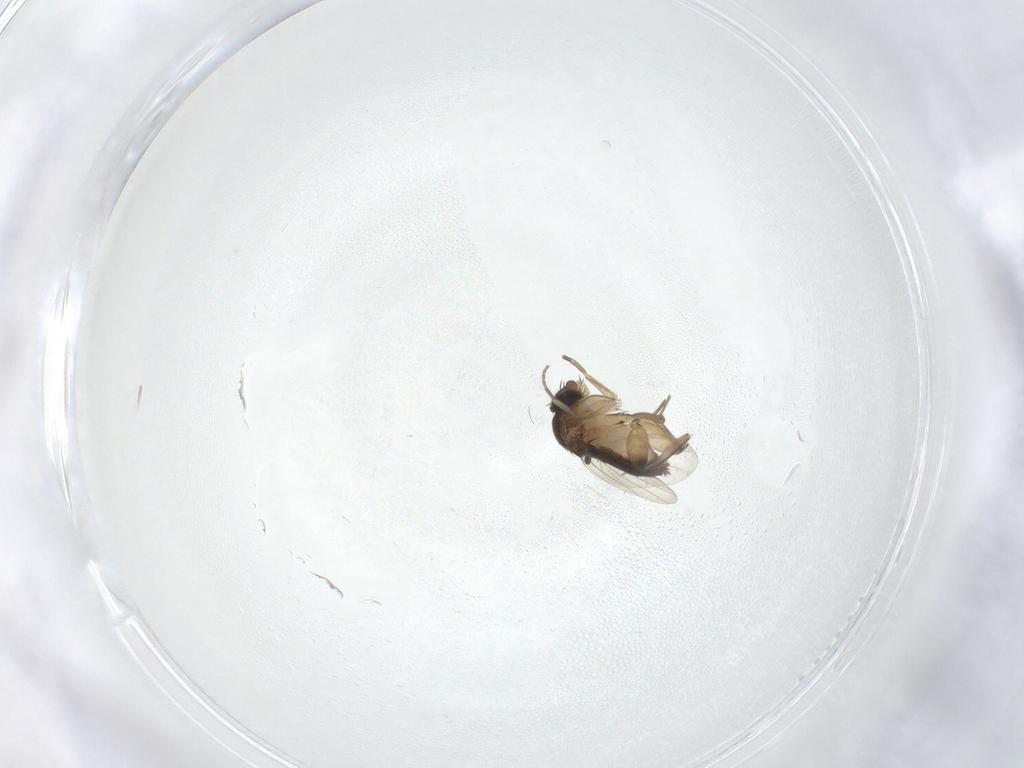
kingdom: Animalia
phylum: Arthropoda
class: Insecta
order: Diptera
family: Phoridae
